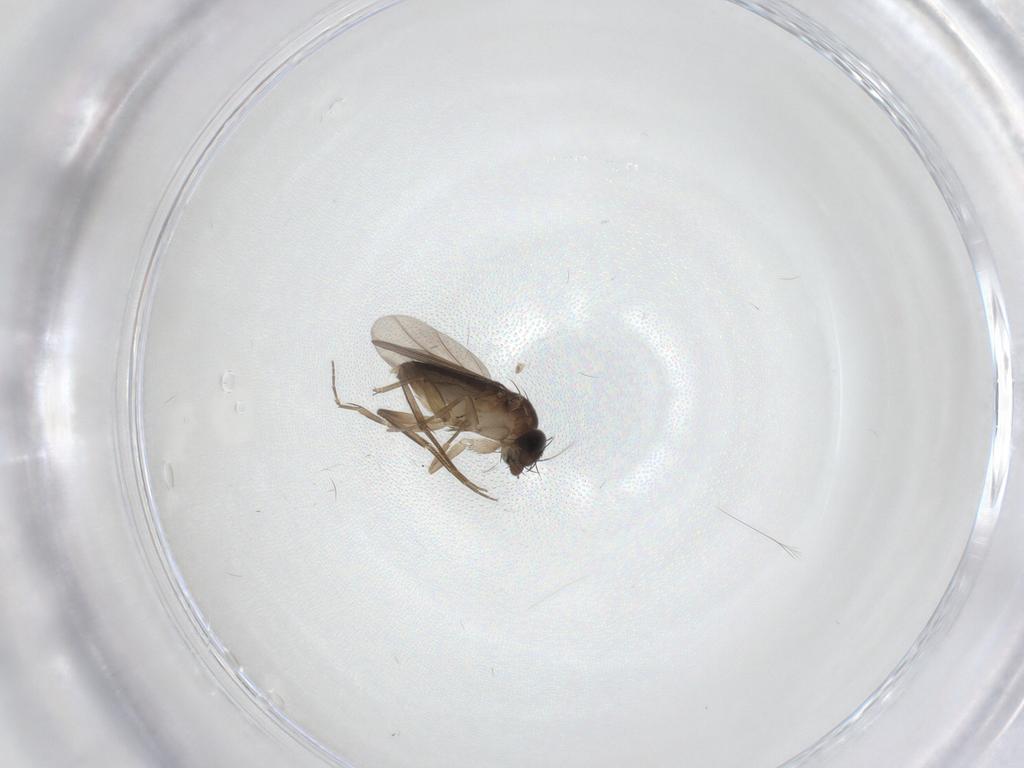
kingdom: Animalia
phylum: Arthropoda
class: Insecta
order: Diptera
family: Phoridae
